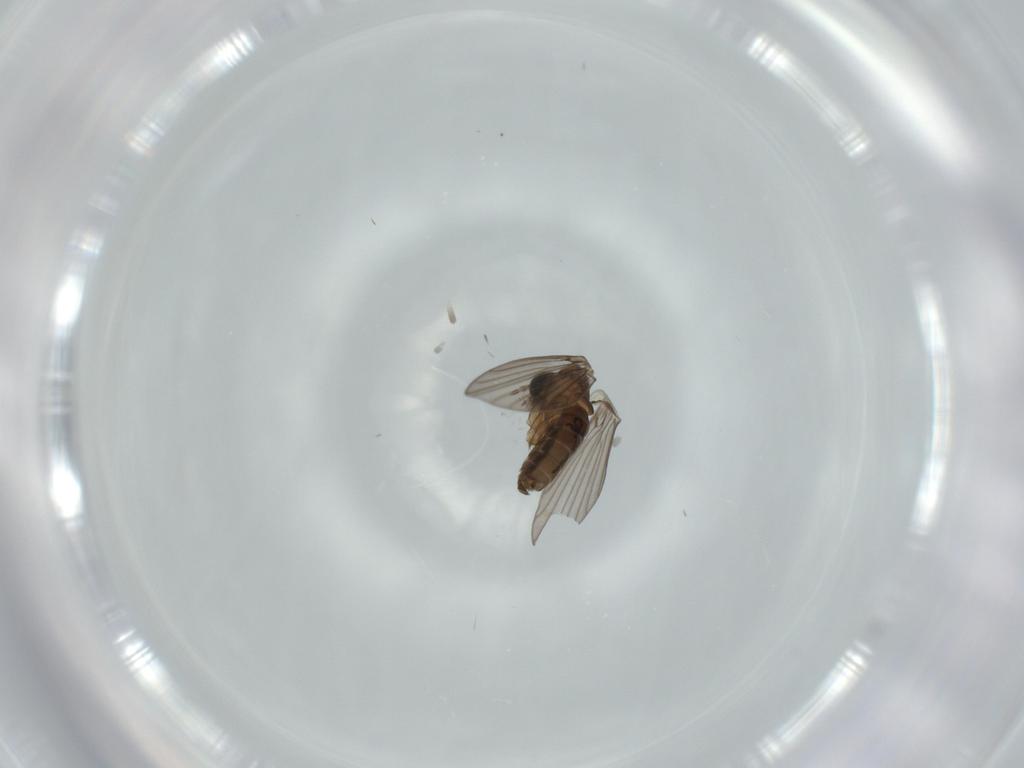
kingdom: Animalia
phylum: Arthropoda
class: Insecta
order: Diptera
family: Psychodidae
